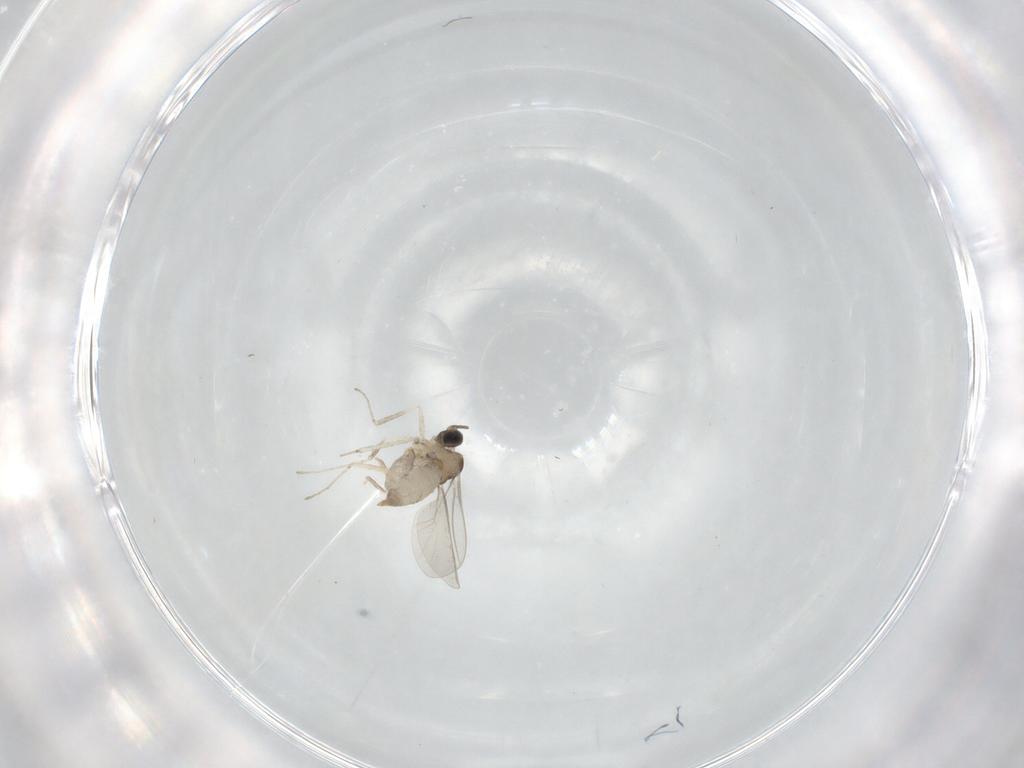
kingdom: Animalia
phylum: Arthropoda
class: Insecta
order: Diptera
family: Cecidomyiidae
